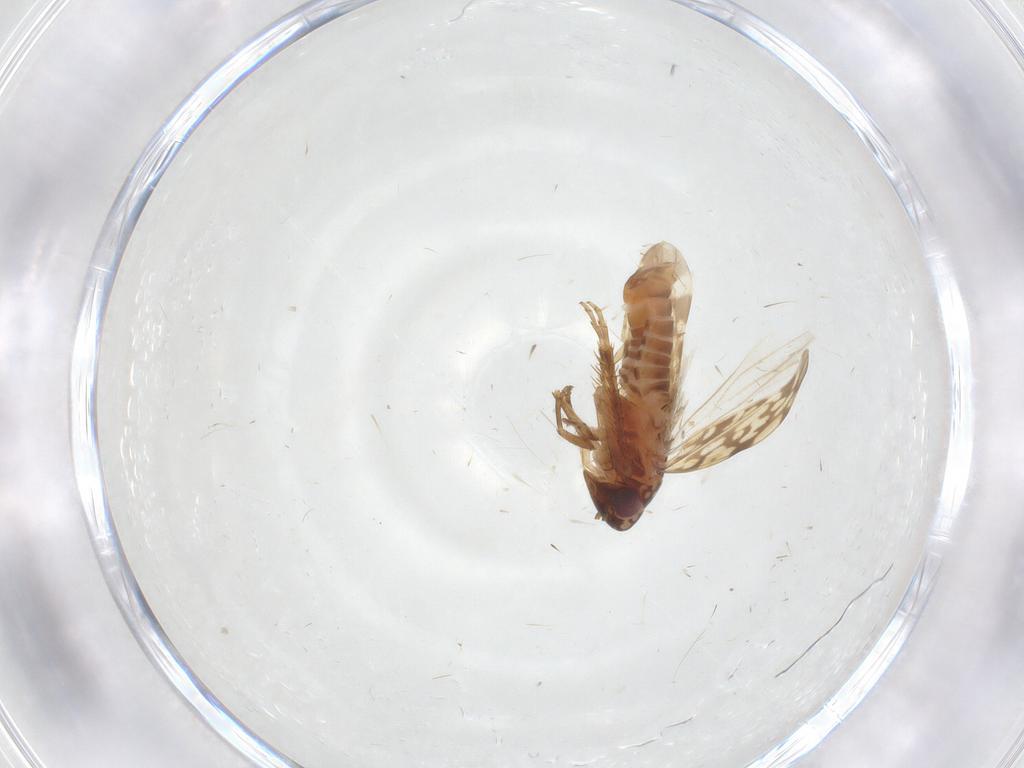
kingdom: Animalia
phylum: Arthropoda
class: Insecta
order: Hemiptera
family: Cicadellidae
